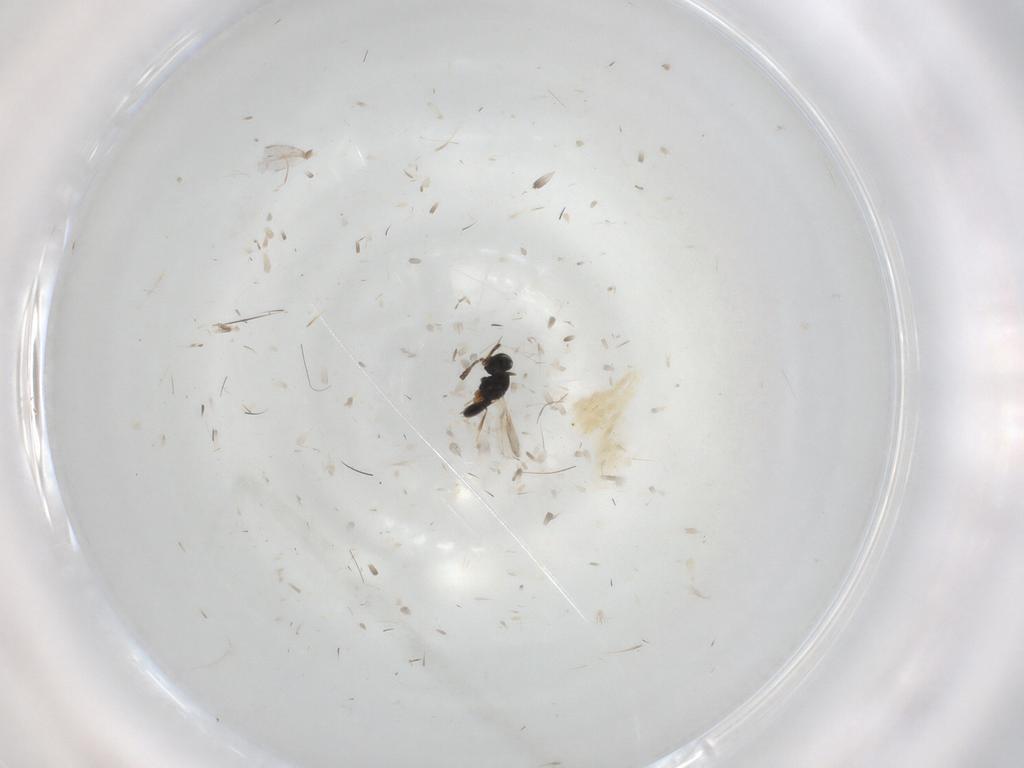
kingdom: Animalia
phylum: Arthropoda
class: Insecta
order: Hymenoptera
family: Scelionidae
